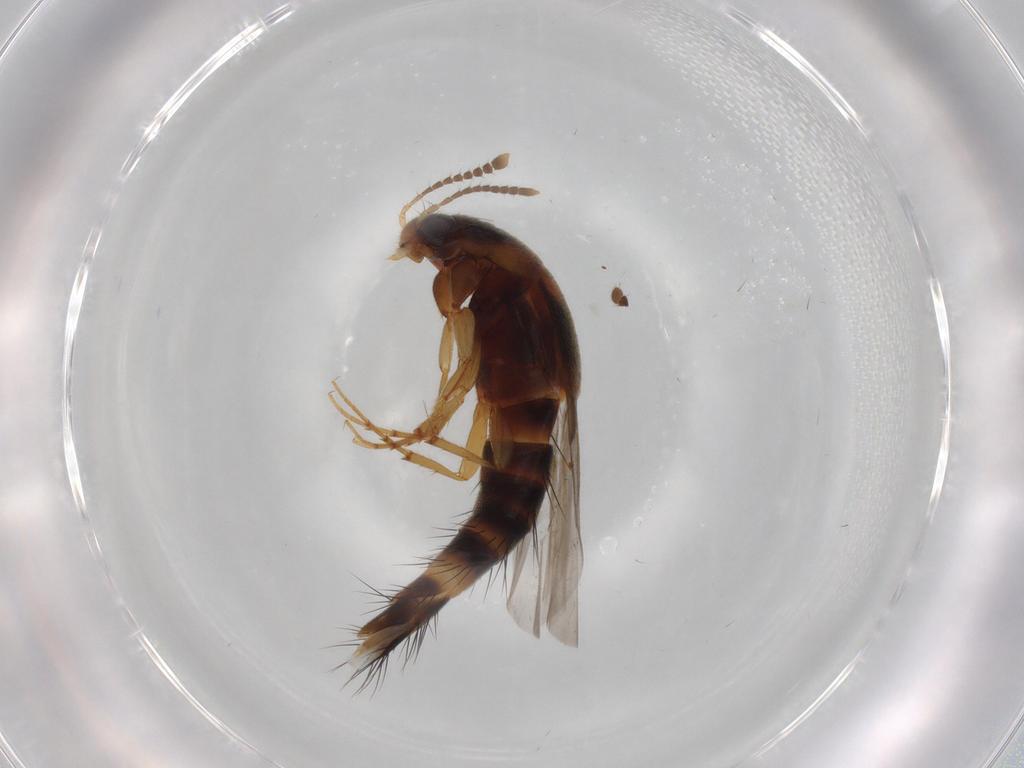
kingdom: Animalia
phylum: Arthropoda
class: Insecta
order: Coleoptera
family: Staphylinidae
